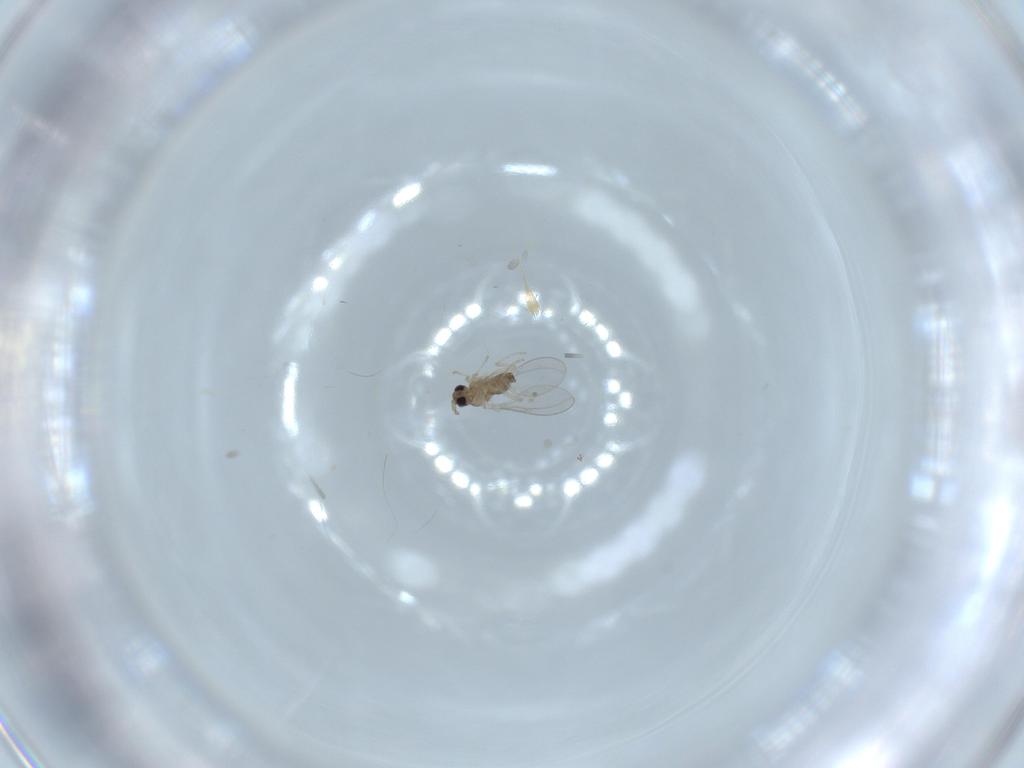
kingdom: Animalia
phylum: Arthropoda
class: Insecta
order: Diptera
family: Cecidomyiidae
